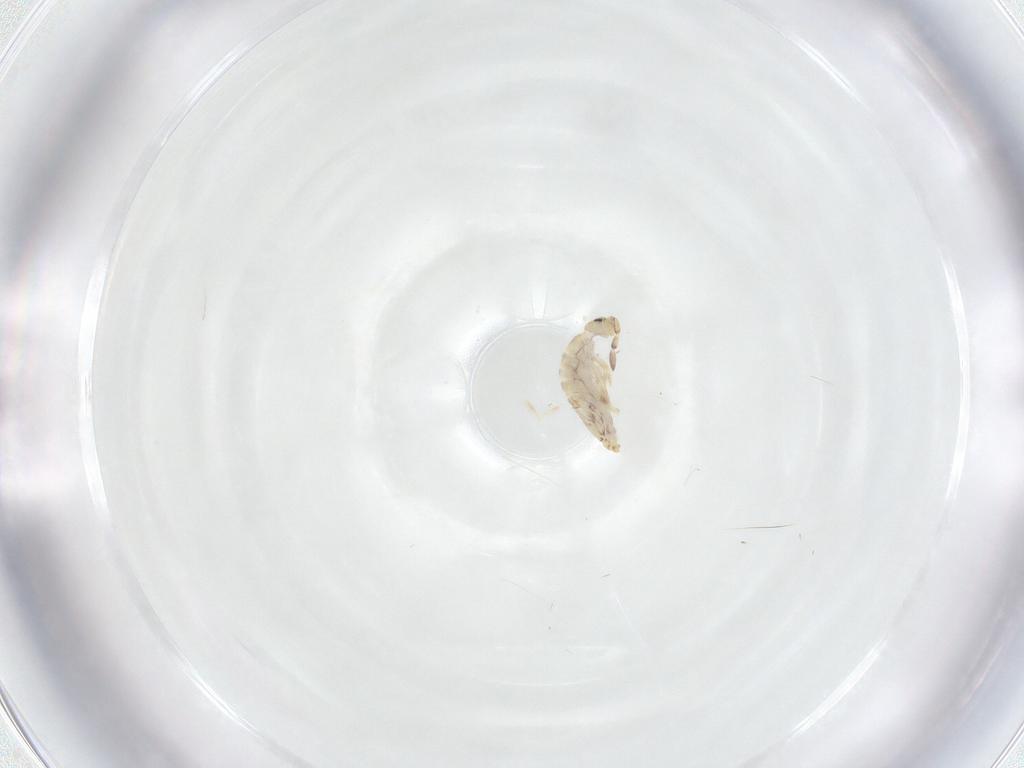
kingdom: Animalia
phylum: Arthropoda
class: Collembola
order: Entomobryomorpha
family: Entomobryidae
